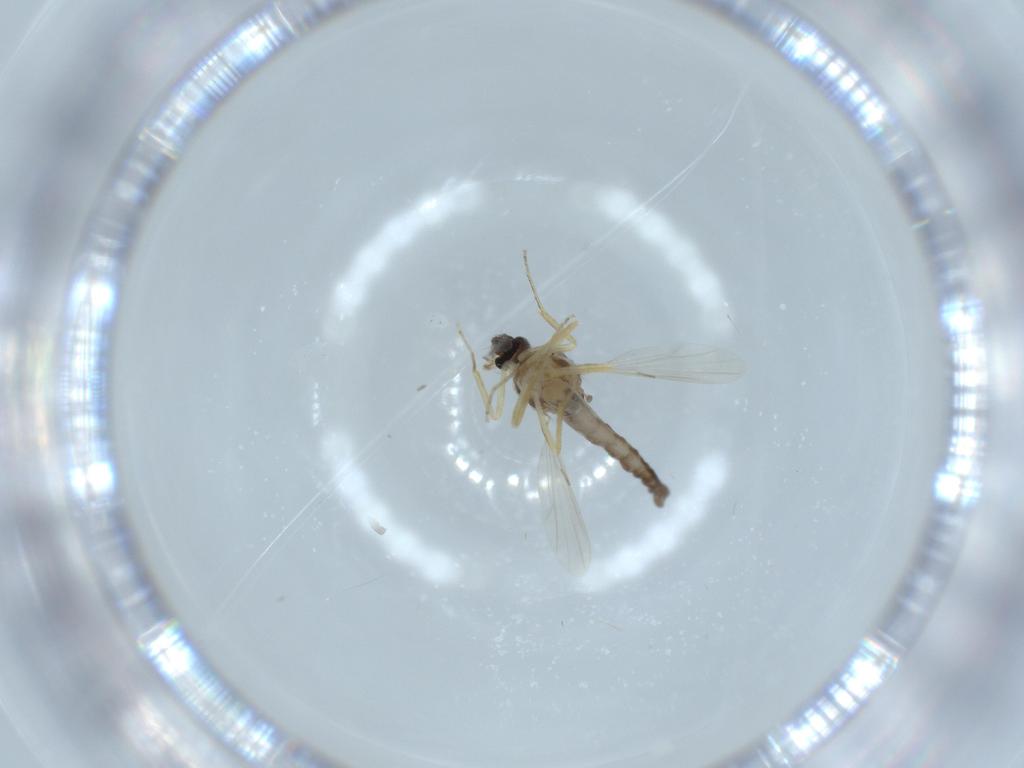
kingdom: Animalia
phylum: Arthropoda
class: Insecta
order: Diptera
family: Ceratopogonidae
